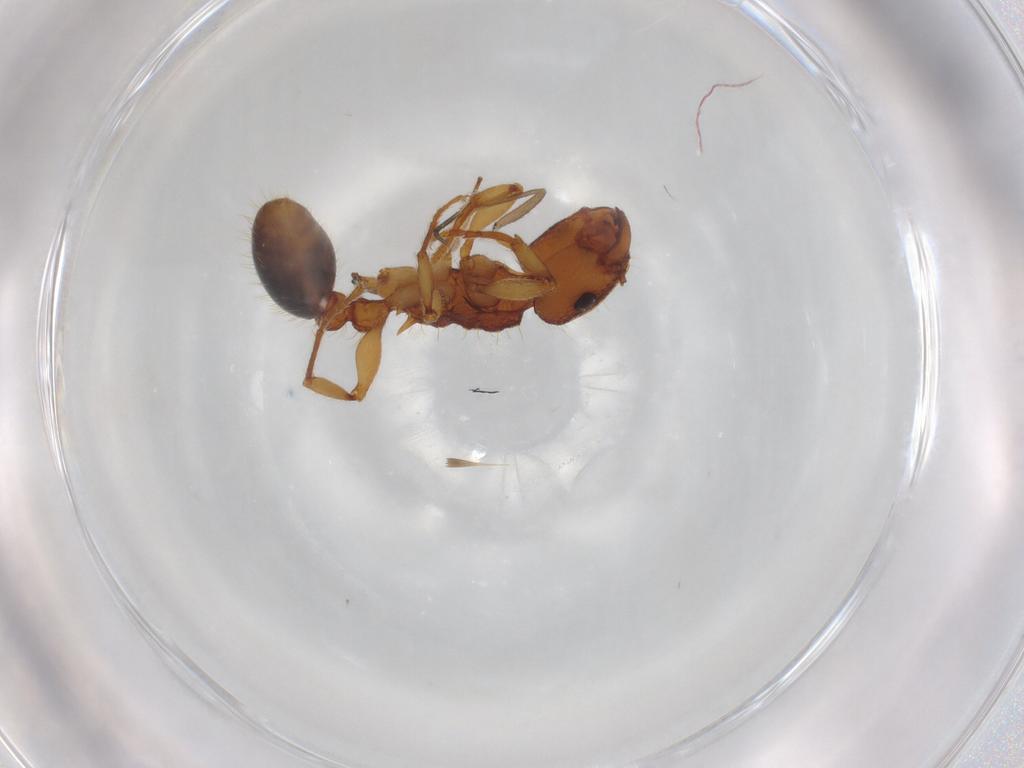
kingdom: Animalia
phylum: Arthropoda
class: Insecta
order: Hymenoptera
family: Formicidae
